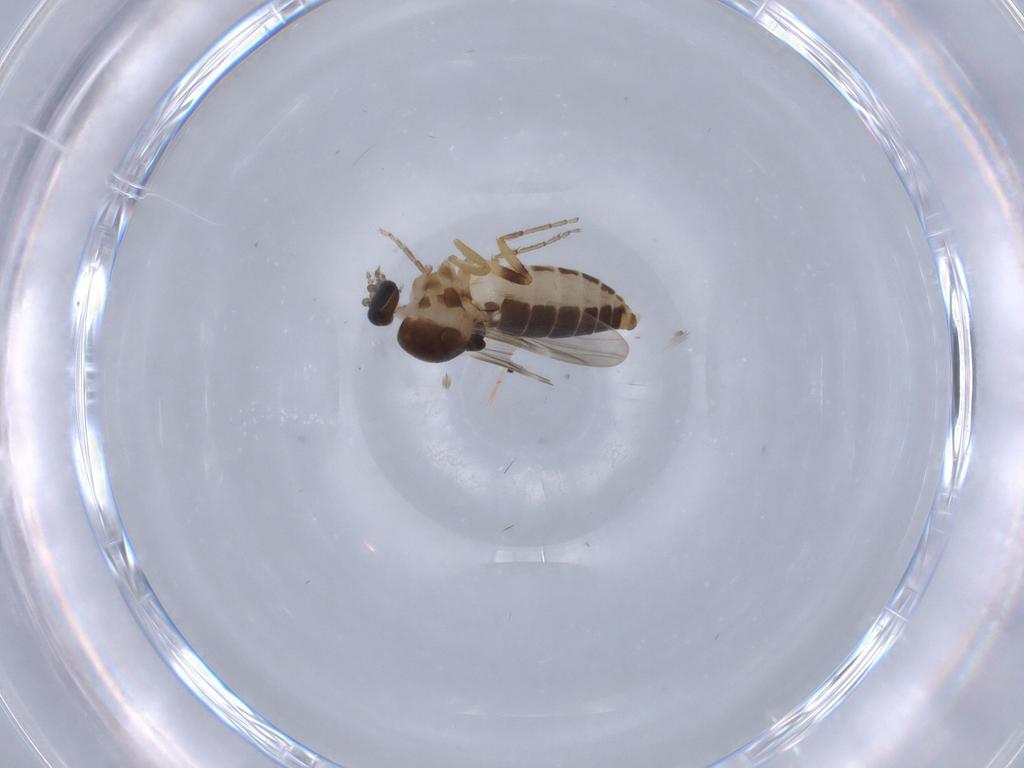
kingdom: Animalia
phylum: Arthropoda
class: Insecta
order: Diptera
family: Ceratopogonidae
